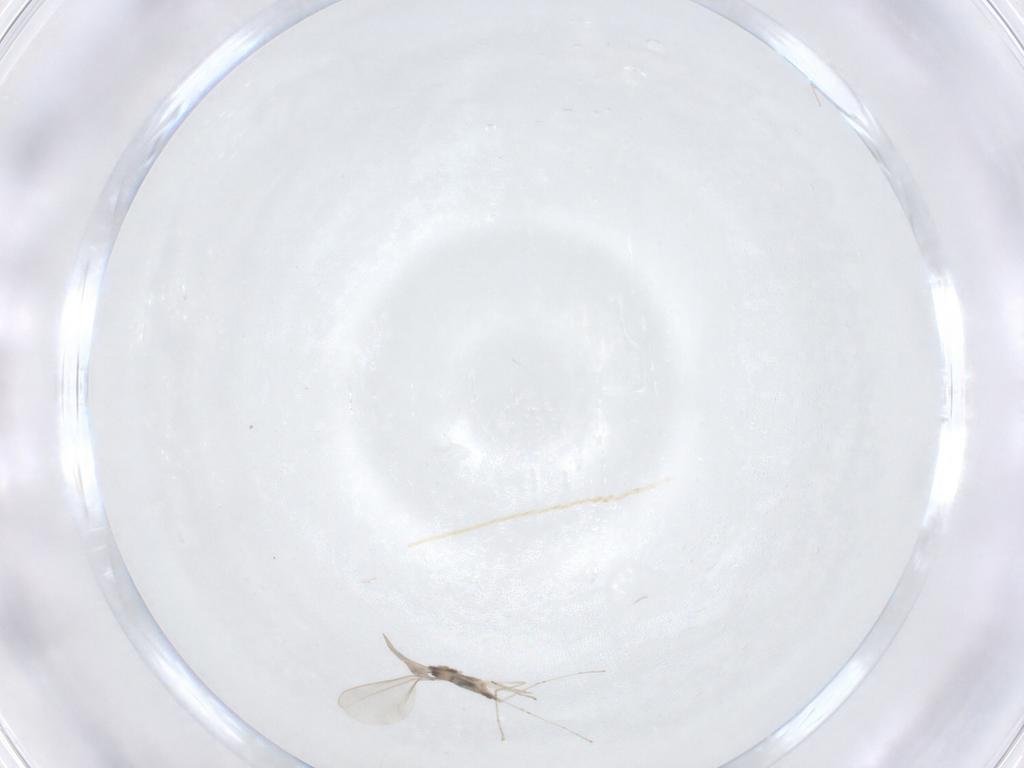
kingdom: Animalia
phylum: Arthropoda
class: Insecta
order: Diptera
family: Cecidomyiidae
